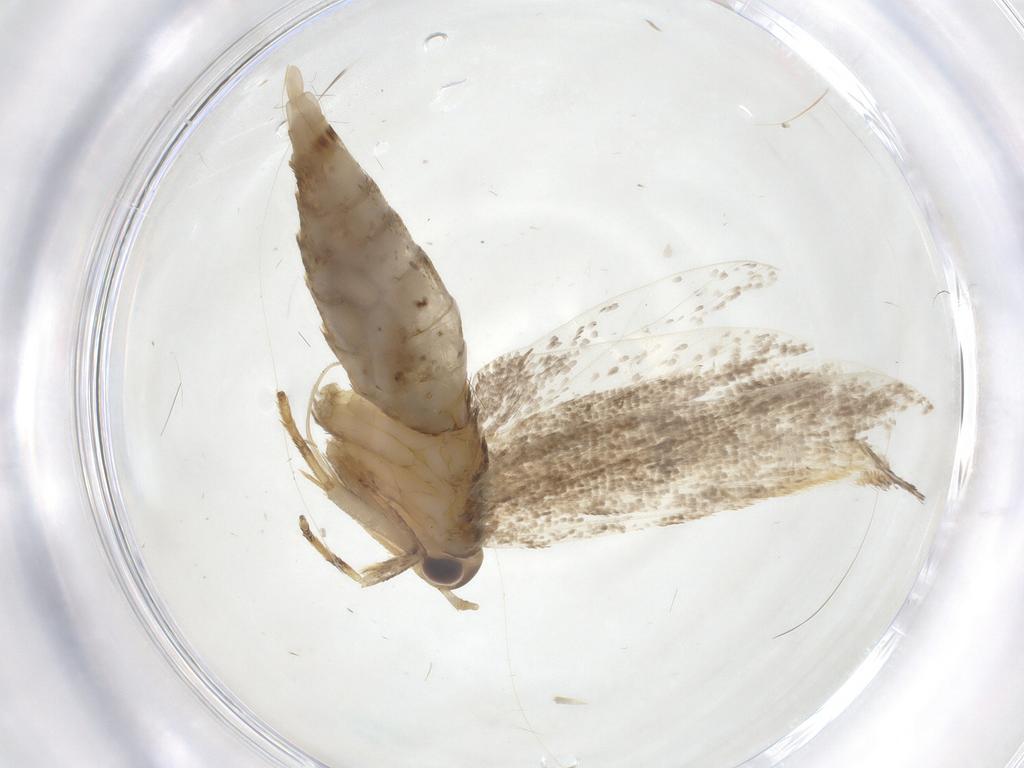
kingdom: Animalia
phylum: Arthropoda
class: Insecta
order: Lepidoptera
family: Lecithoceridae
